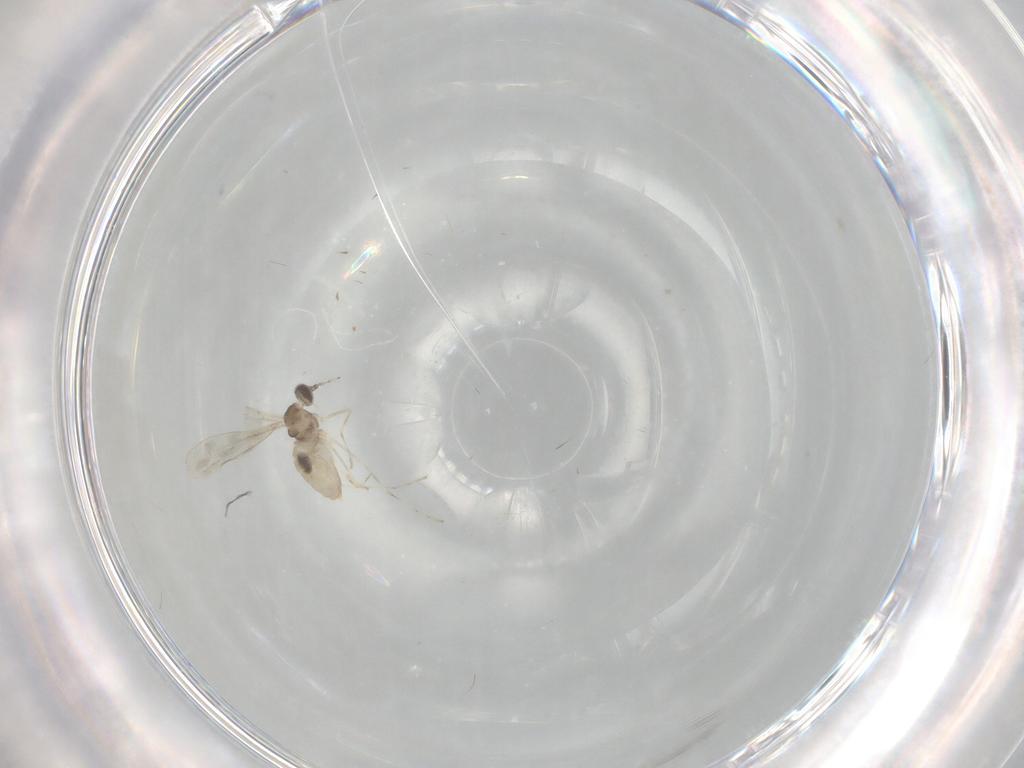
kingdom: Animalia
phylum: Arthropoda
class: Insecta
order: Diptera
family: Cecidomyiidae
